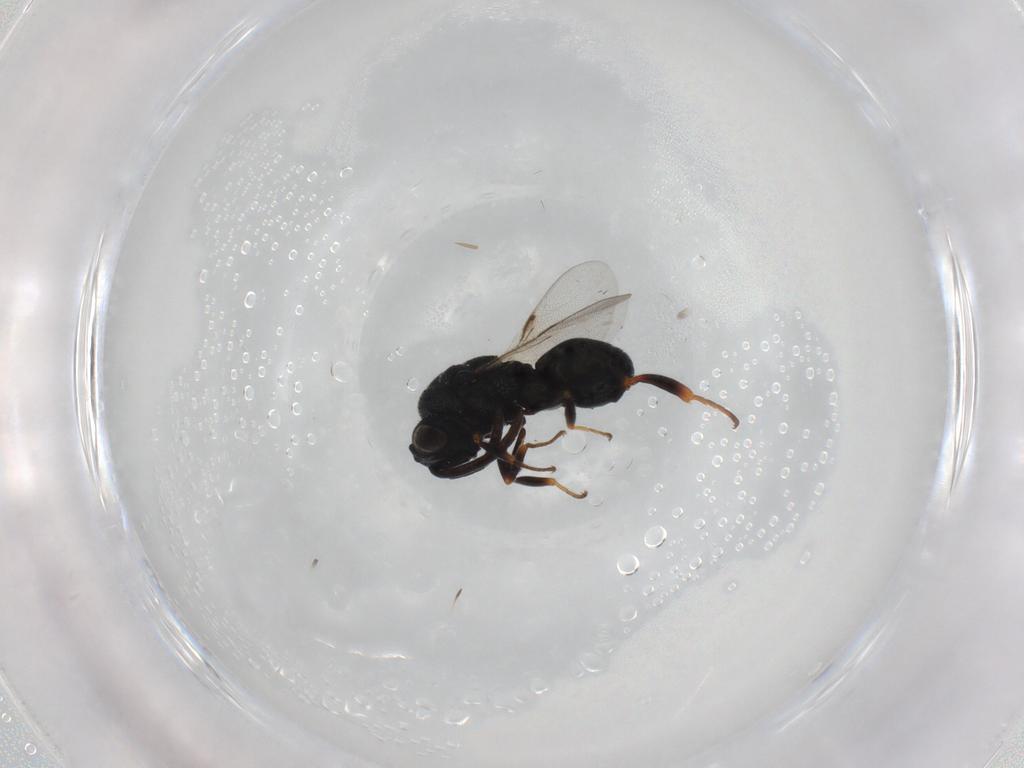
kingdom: Animalia
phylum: Arthropoda
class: Insecta
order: Hymenoptera
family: Chalcididae
